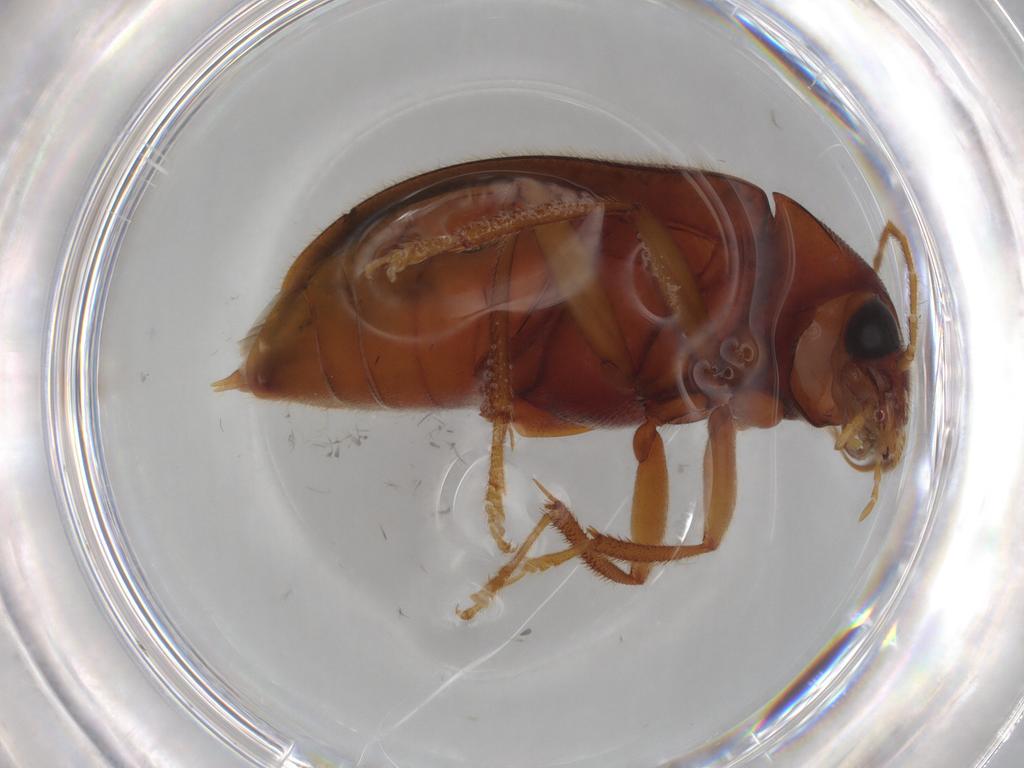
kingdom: Animalia
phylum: Arthropoda
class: Insecta
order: Coleoptera
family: Ptilodactylidae
